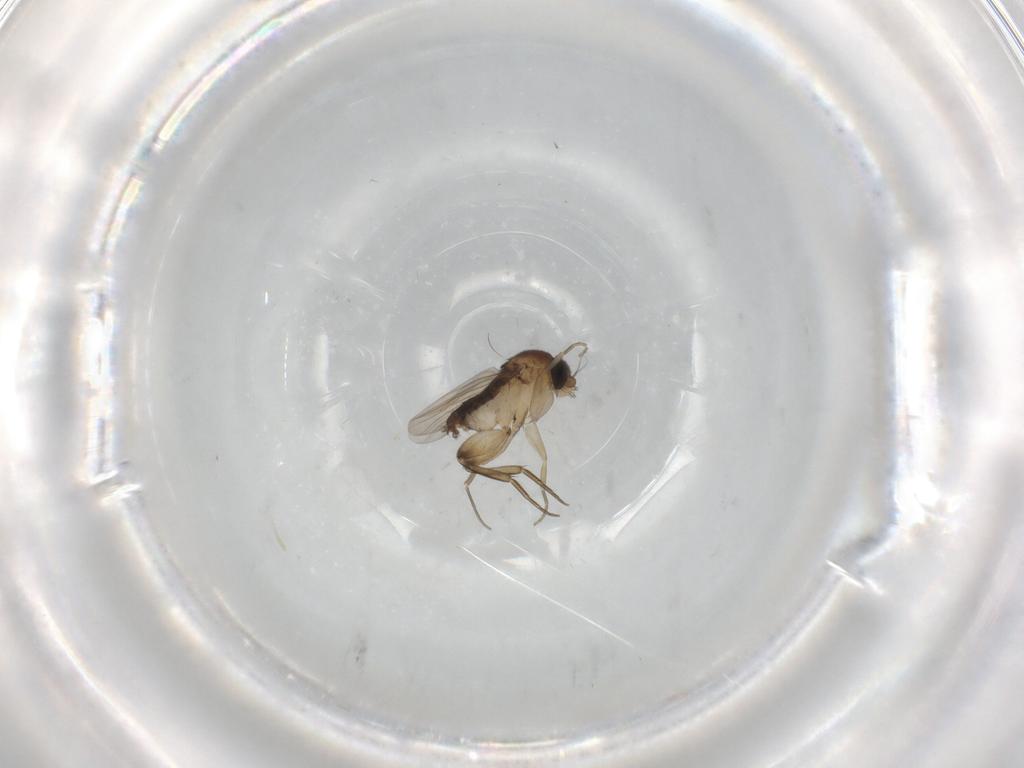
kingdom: Animalia
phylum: Arthropoda
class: Insecta
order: Diptera
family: Phoridae
